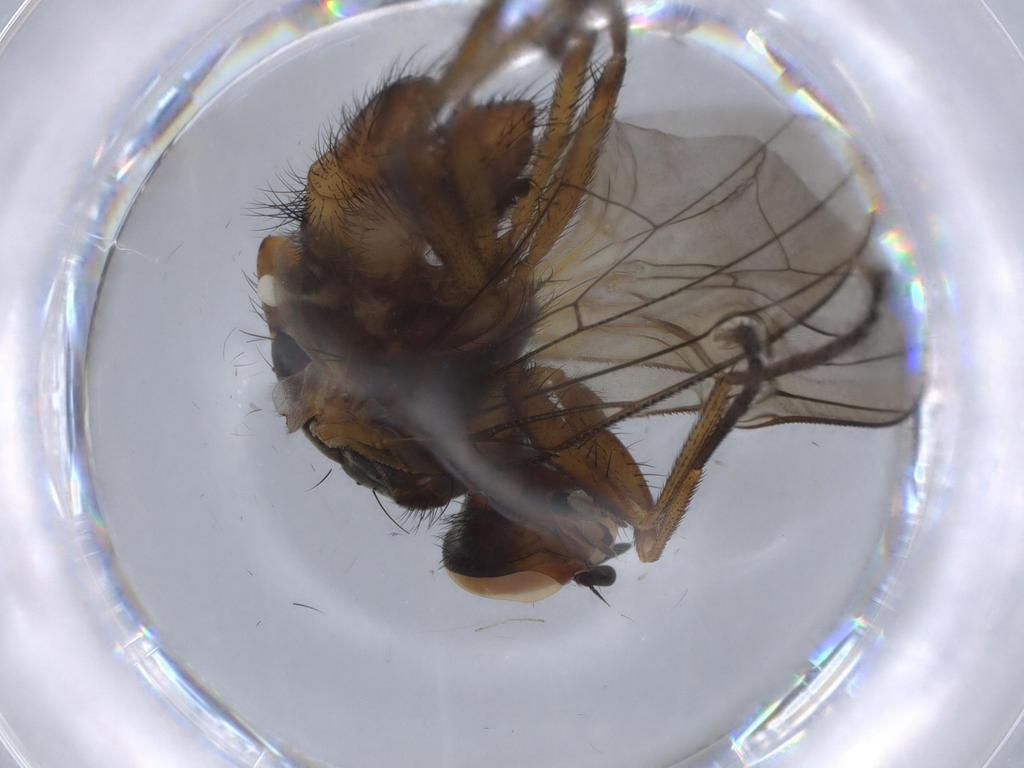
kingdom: Animalia
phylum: Arthropoda
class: Insecta
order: Diptera
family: Anthomyiidae
